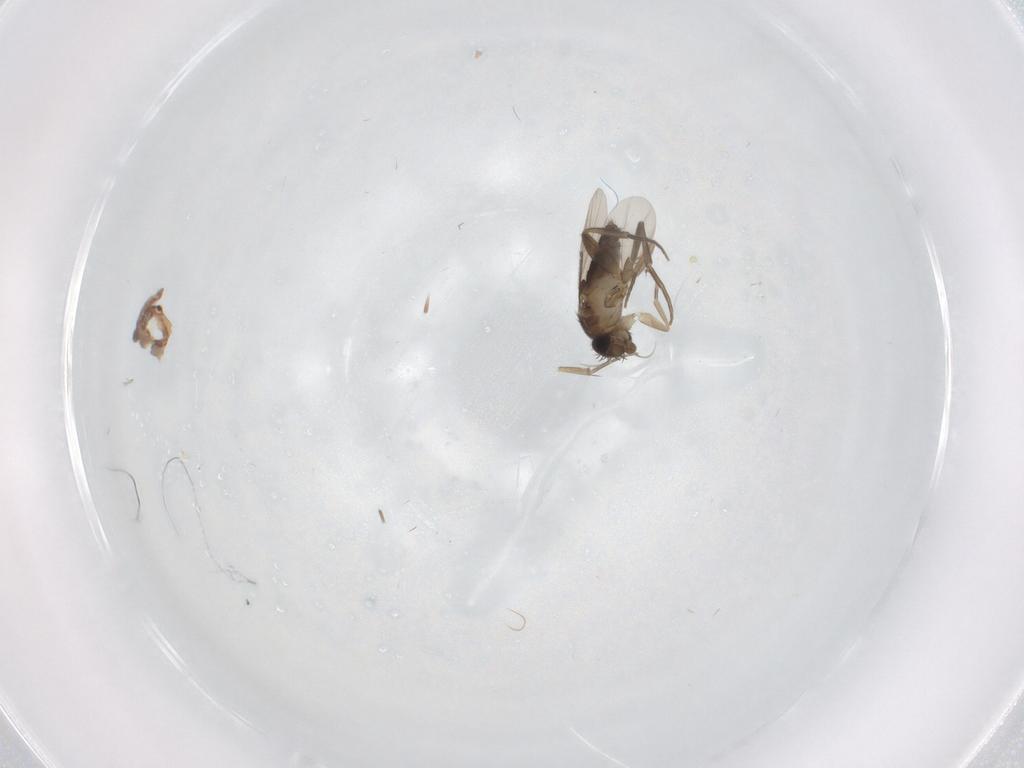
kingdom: Animalia
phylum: Arthropoda
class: Insecta
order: Diptera
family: Phoridae
